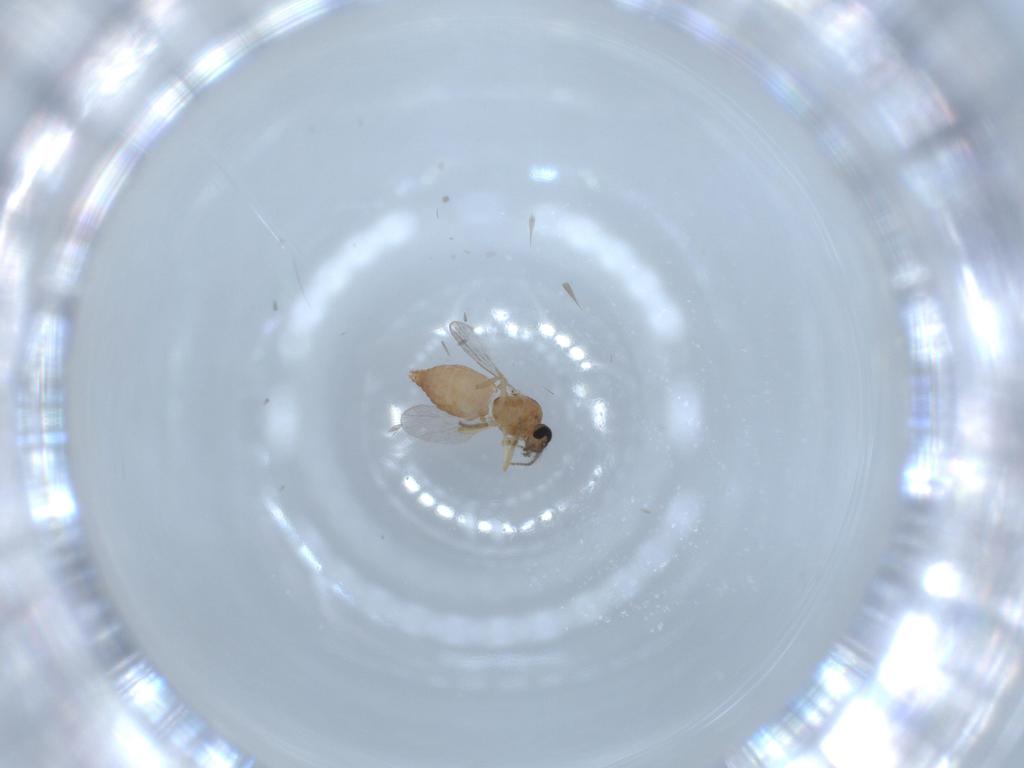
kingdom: Animalia
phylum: Arthropoda
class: Insecta
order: Diptera
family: Ceratopogonidae
